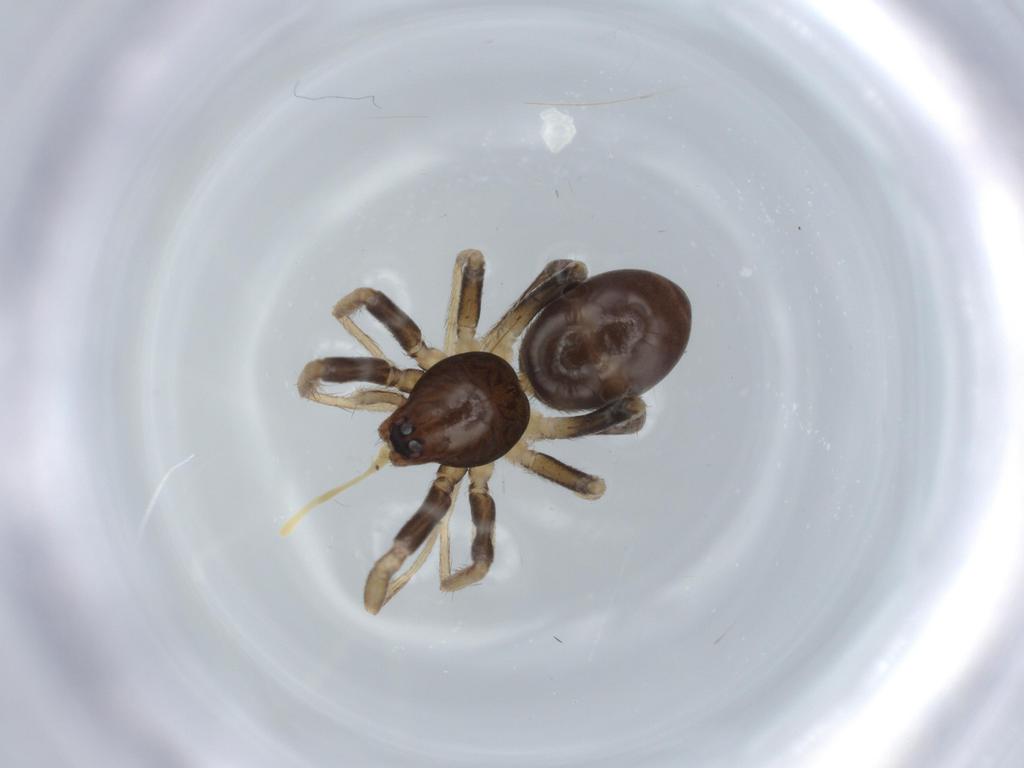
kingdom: Animalia
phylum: Arthropoda
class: Arachnida
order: Araneae
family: Corinnidae
